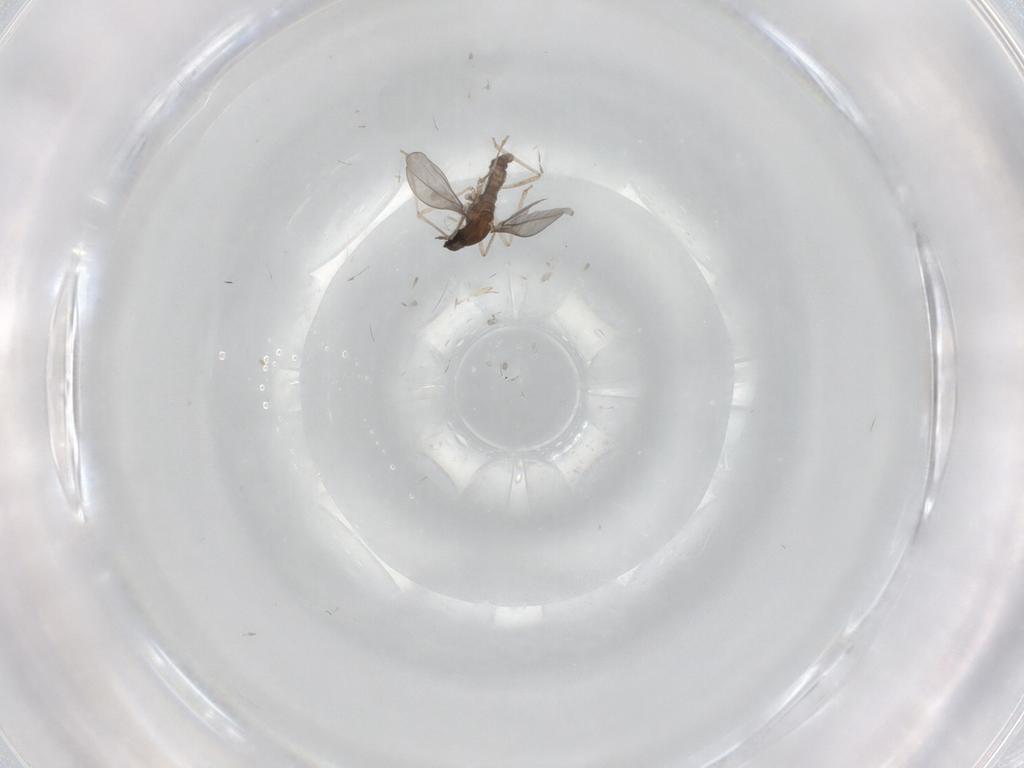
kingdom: Animalia
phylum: Arthropoda
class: Insecta
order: Diptera
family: Cecidomyiidae
